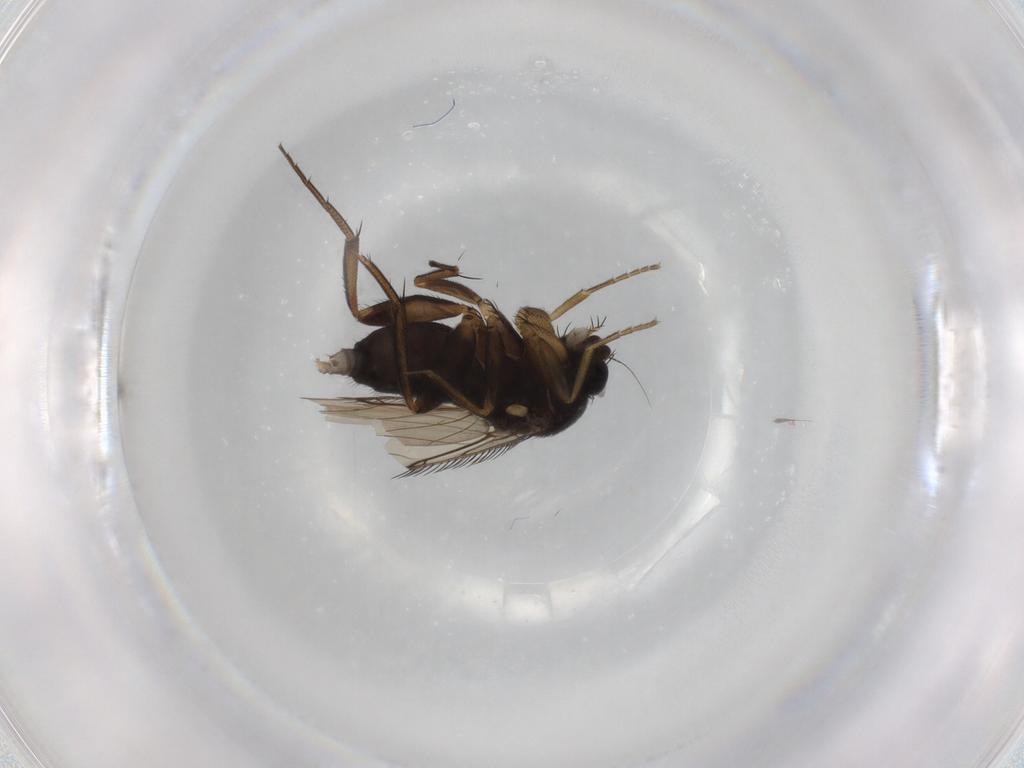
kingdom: Animalia
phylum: Arthropoda
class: Insecta
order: Diptera
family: Phoridae
